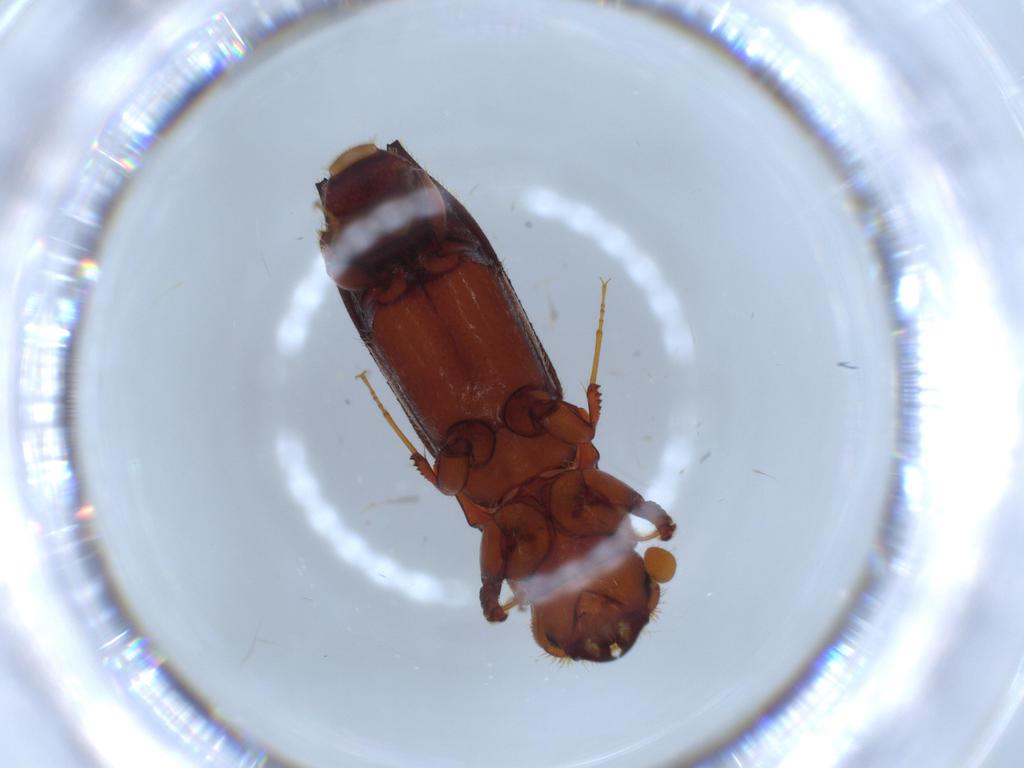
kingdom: Animalia
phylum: Arthropoda
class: Insecta
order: Coleoptera
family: Curculionidae
